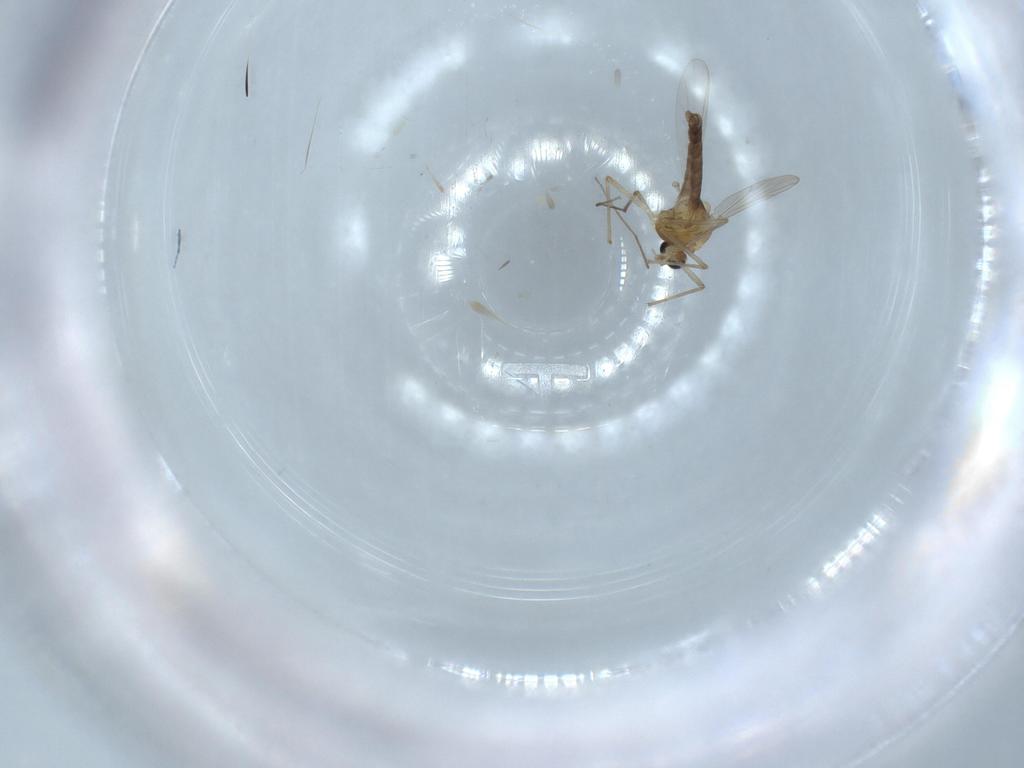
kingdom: Animalia
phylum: Arthropoda
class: Insecta
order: Diptera
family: Chironomidae
